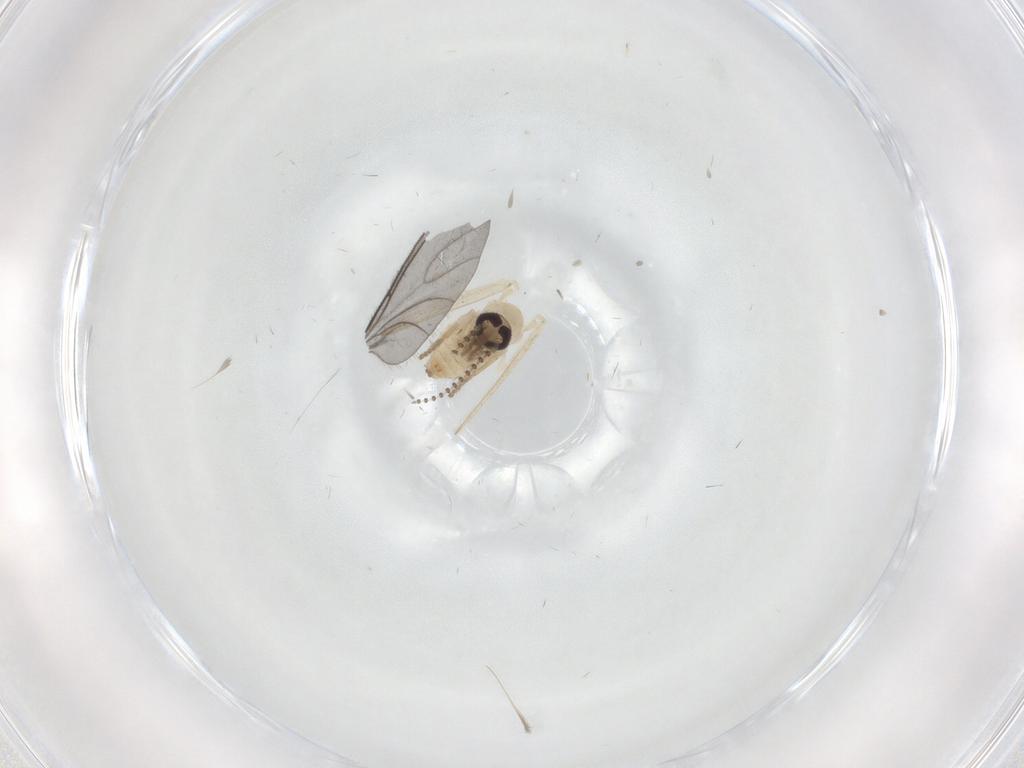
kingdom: Animalia
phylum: Arthropoda
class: Insecta
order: Diptera
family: Psychodidae
